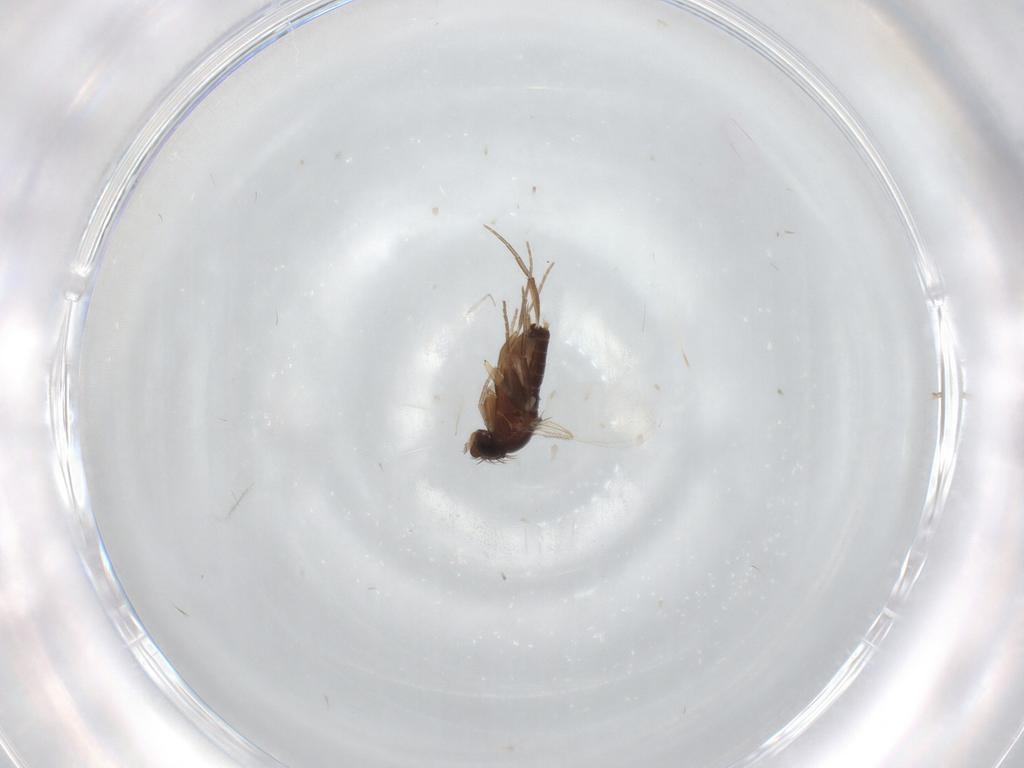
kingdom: Animalia
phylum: Arthropoda
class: Insecta
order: Diptera
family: Phoridae
